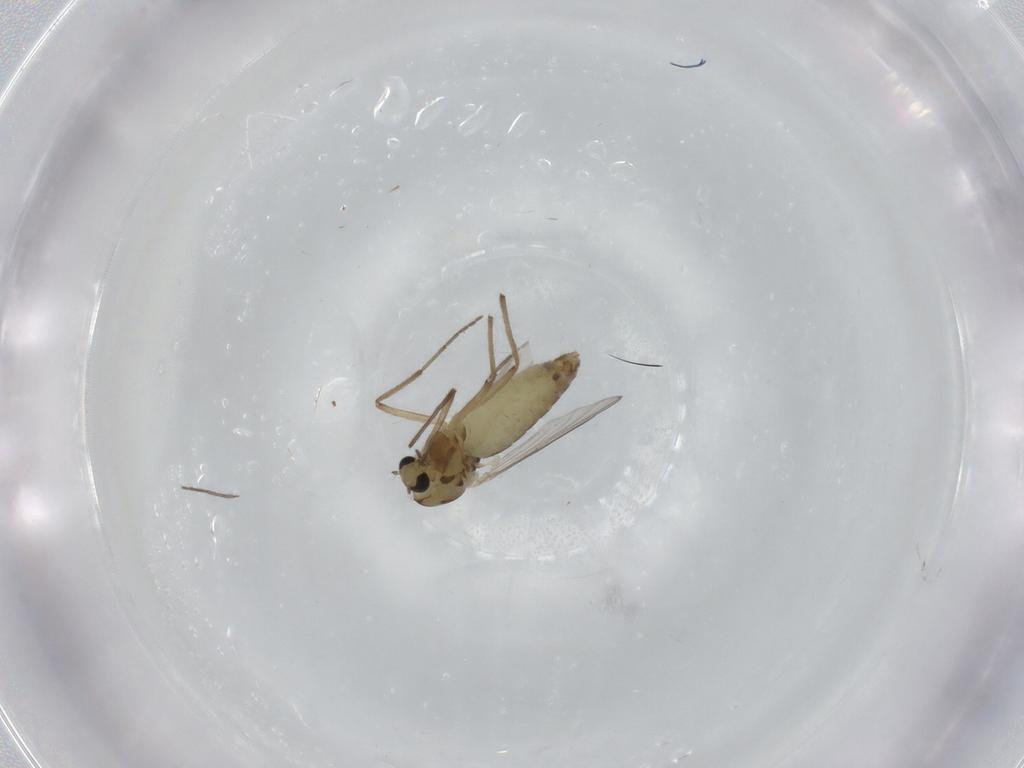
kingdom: Animalia
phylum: Arthropoda
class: Insecta
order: Diptera
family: Chironomidae
